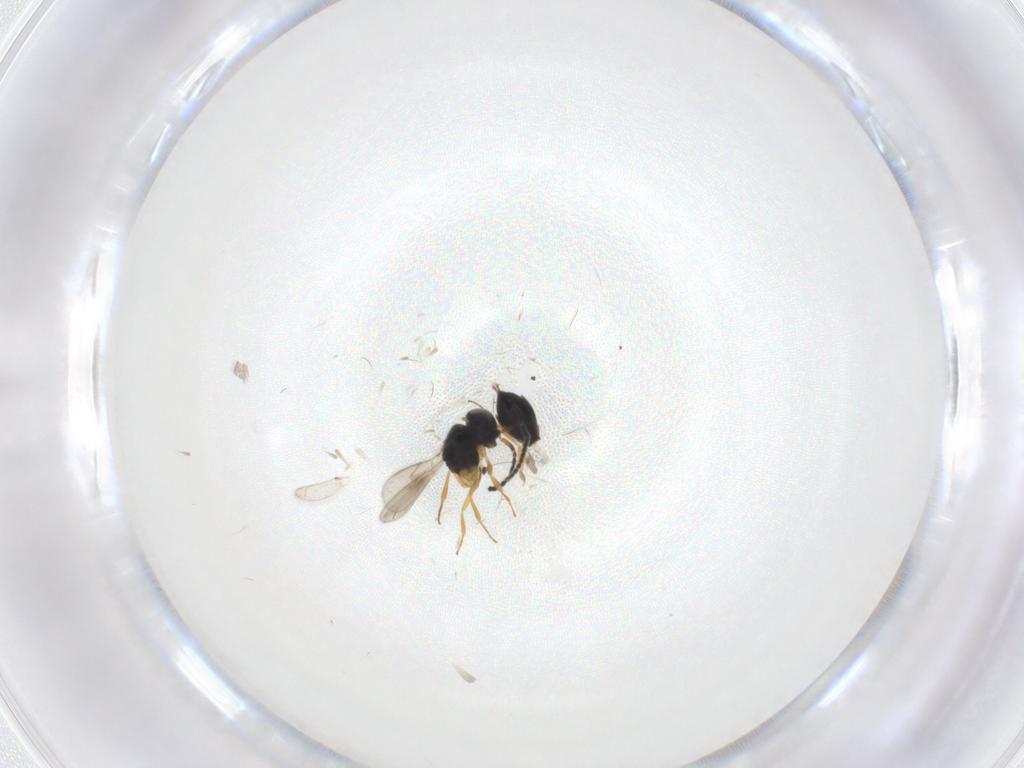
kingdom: Animalia
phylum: Arthropoda
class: Insecta
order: Hymenoptera
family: Scelionidae
